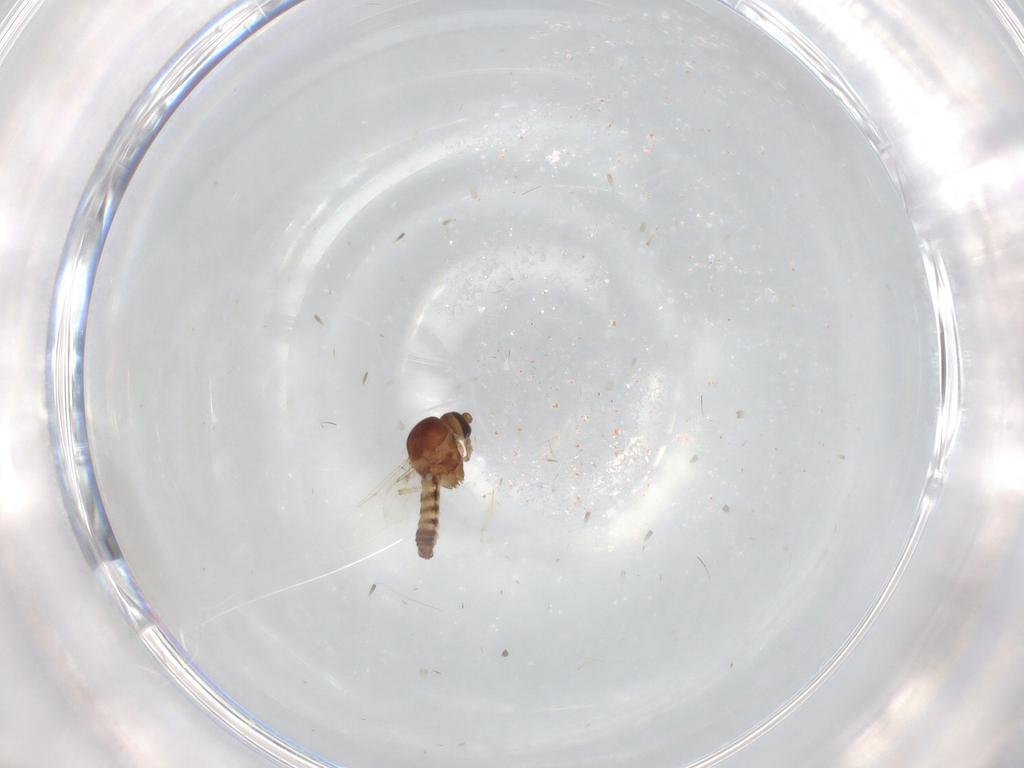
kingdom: Animalia
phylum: Arthropoda
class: Insecta
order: Diptera
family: Ceratopogonidae
